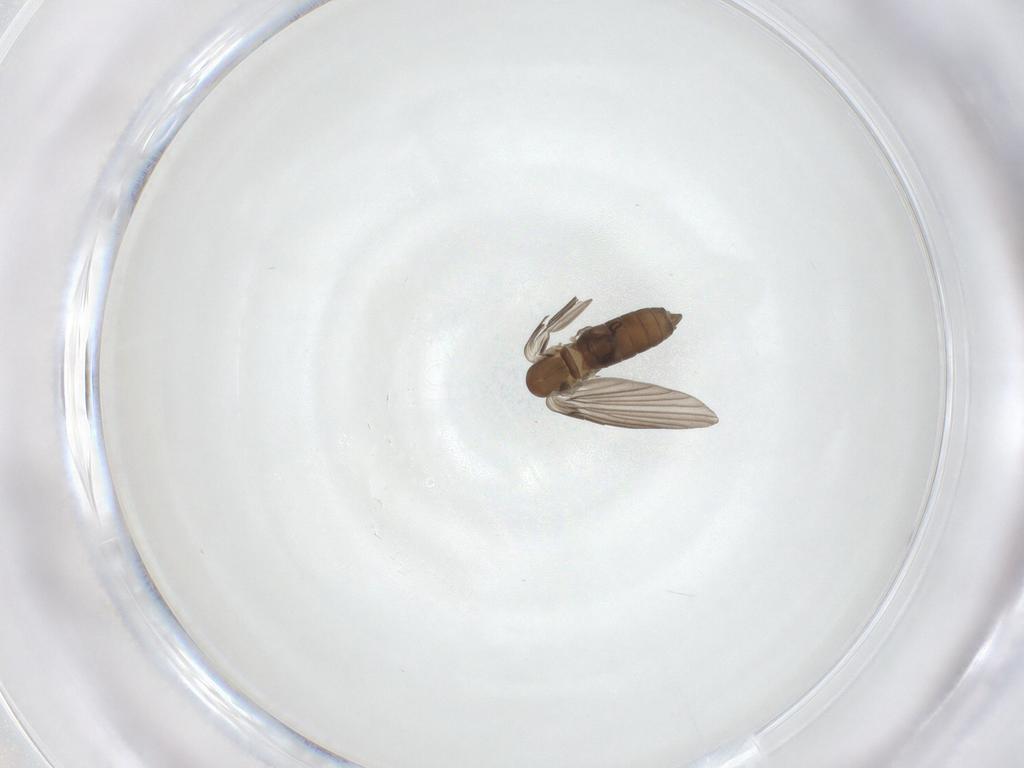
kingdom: Animalia
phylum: Arthropoda
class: Insecta
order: Diptera
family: Psychodidae
